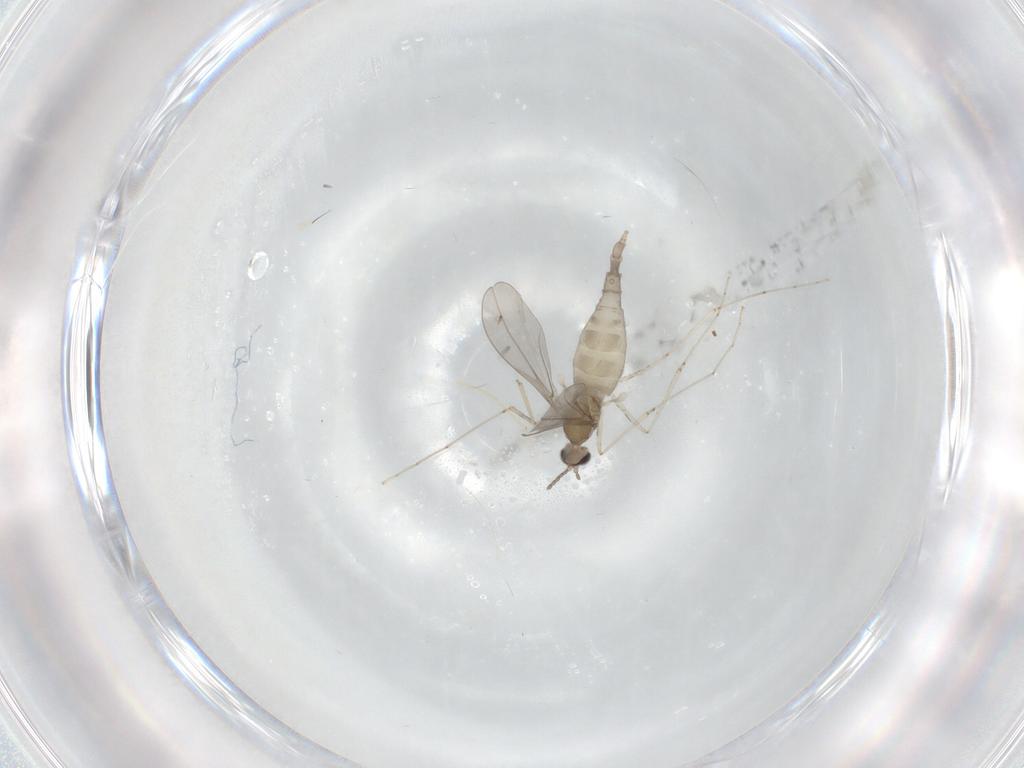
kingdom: Animalia
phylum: Arthropoda
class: Insecta
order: Diptera
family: Cecidomyiidae
